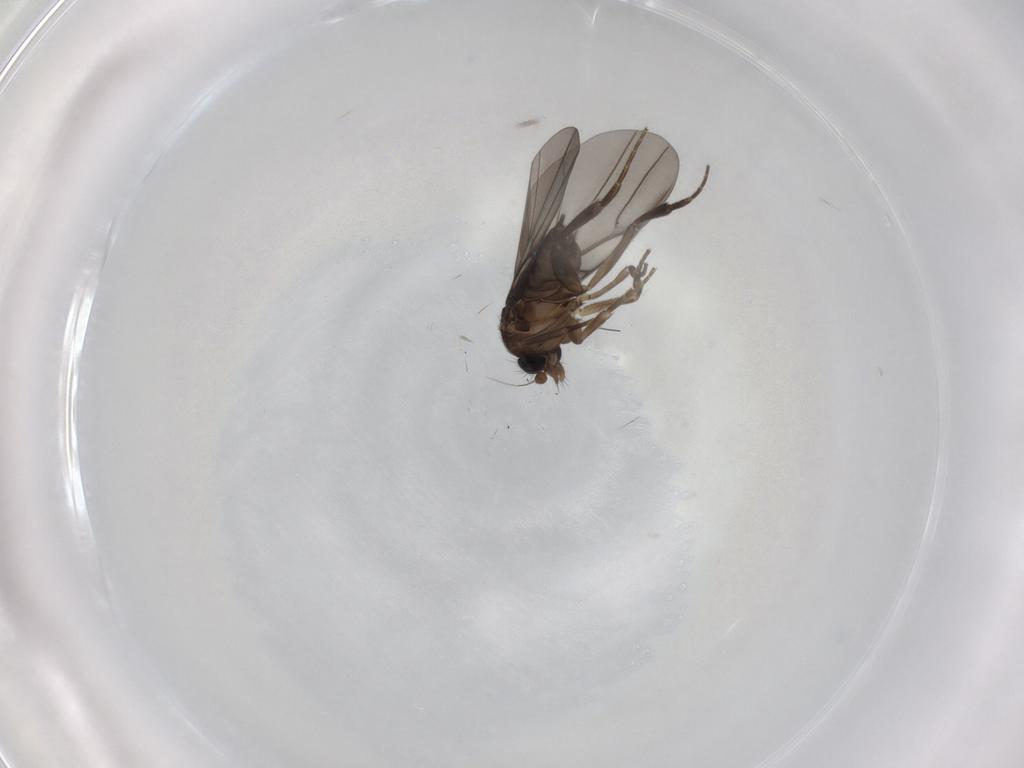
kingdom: Animalia
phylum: Arthropoda
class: Insecta
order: Diptera
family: Phoridae
